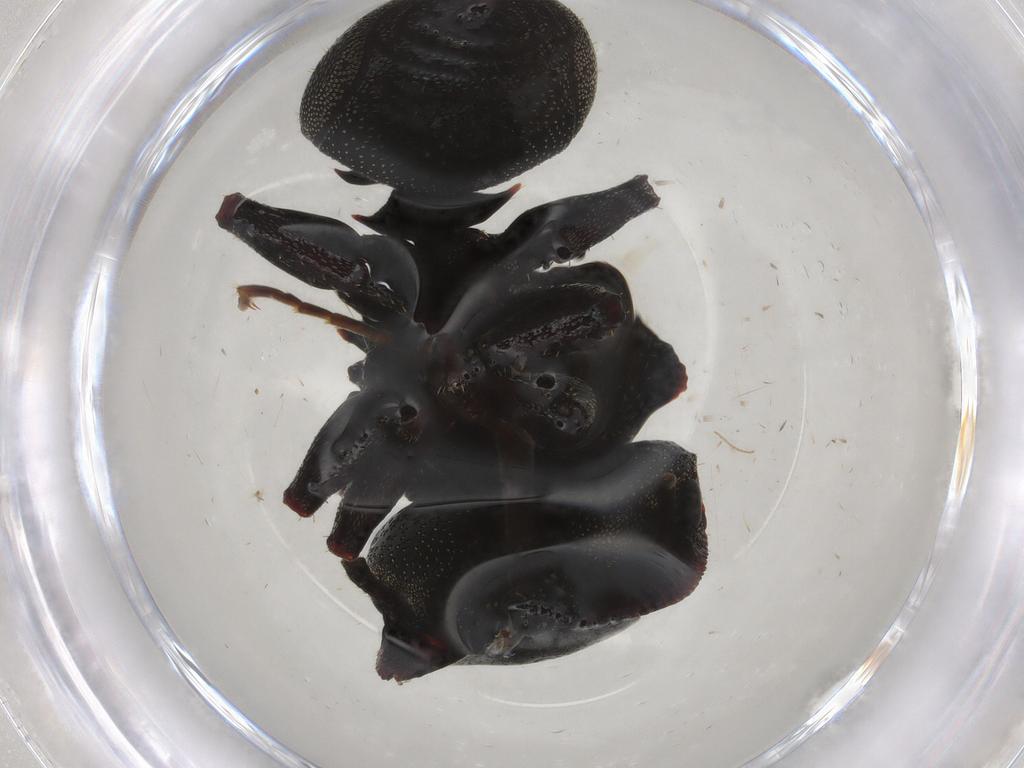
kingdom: Animalia
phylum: Arthropoda
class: Insecta
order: Hymenoptera
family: Formicidae
